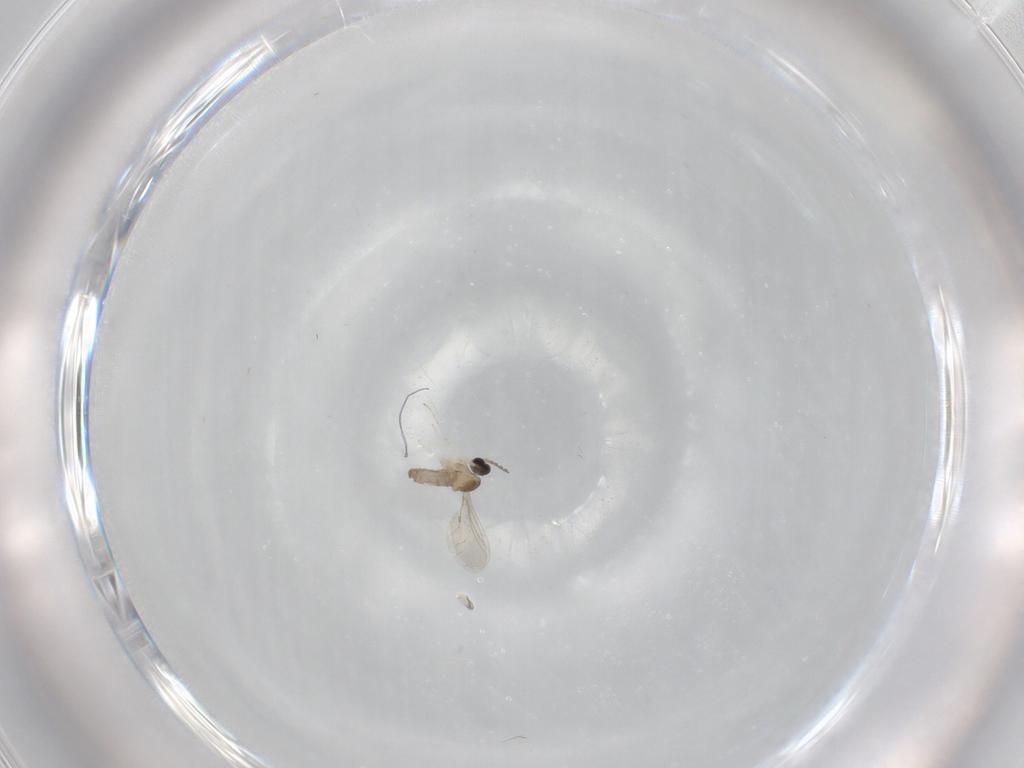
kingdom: Animalia
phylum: Arthropoda
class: Insecta
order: Diptera
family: Cecidomyiidae
